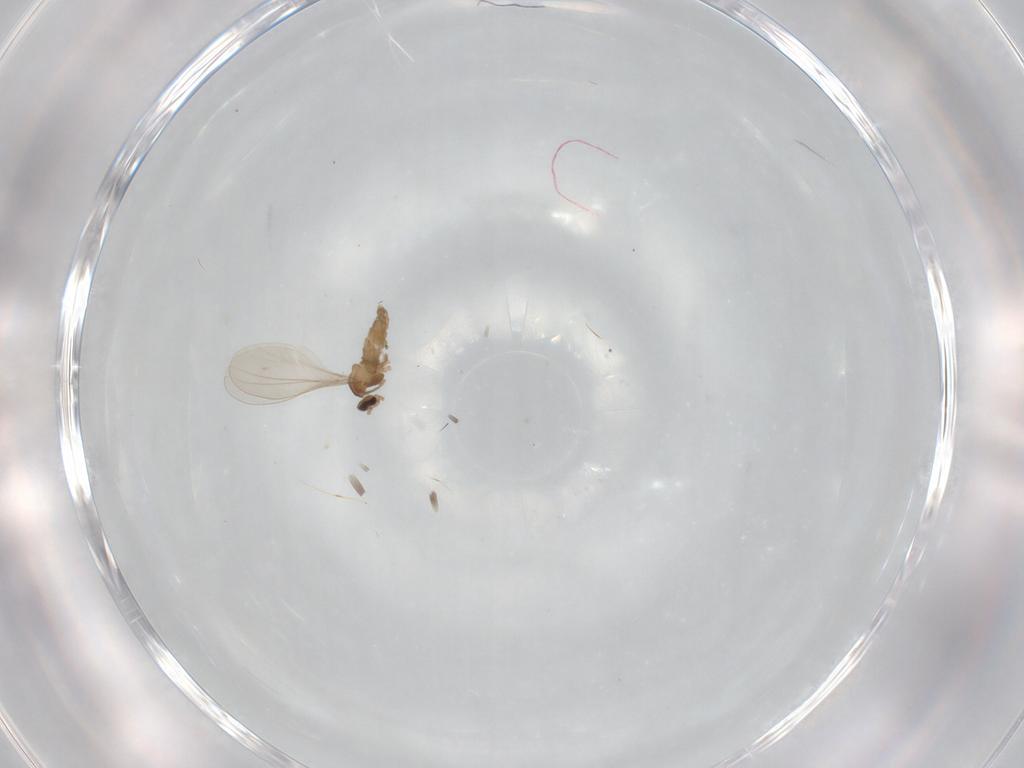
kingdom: Animalia
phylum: Arthropoda
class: Insecta
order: Diptera
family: Cecidomyiidae
